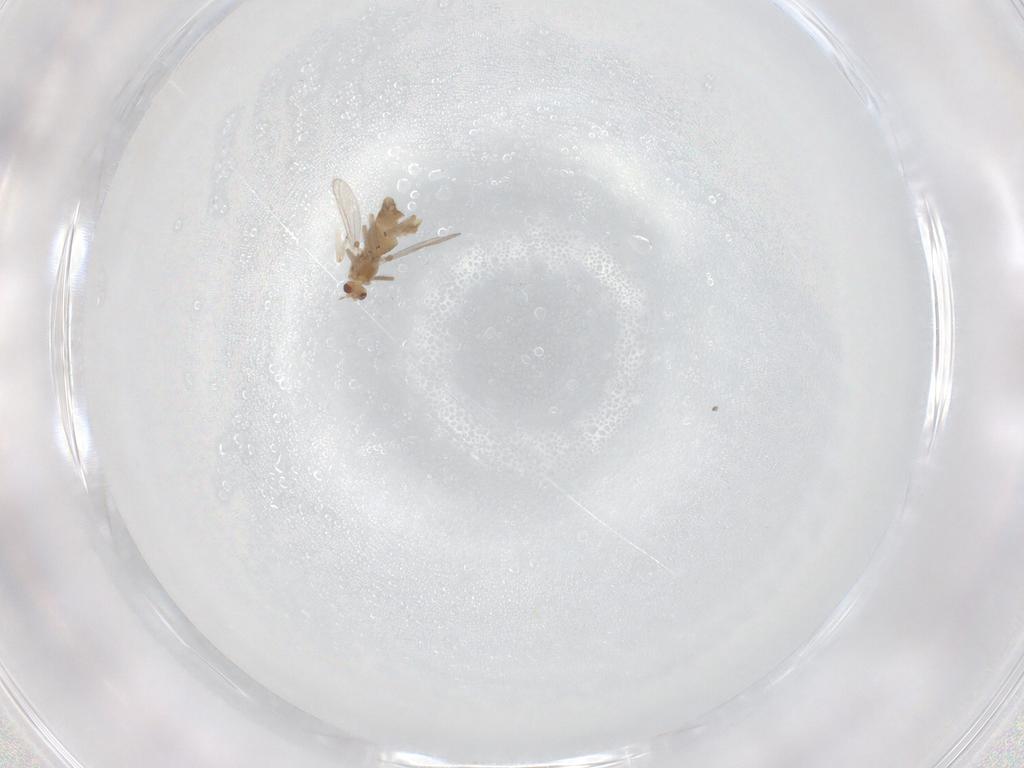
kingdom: Animalia
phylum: Arthropoda
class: Insecta
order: Diptera
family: Chironomidae
